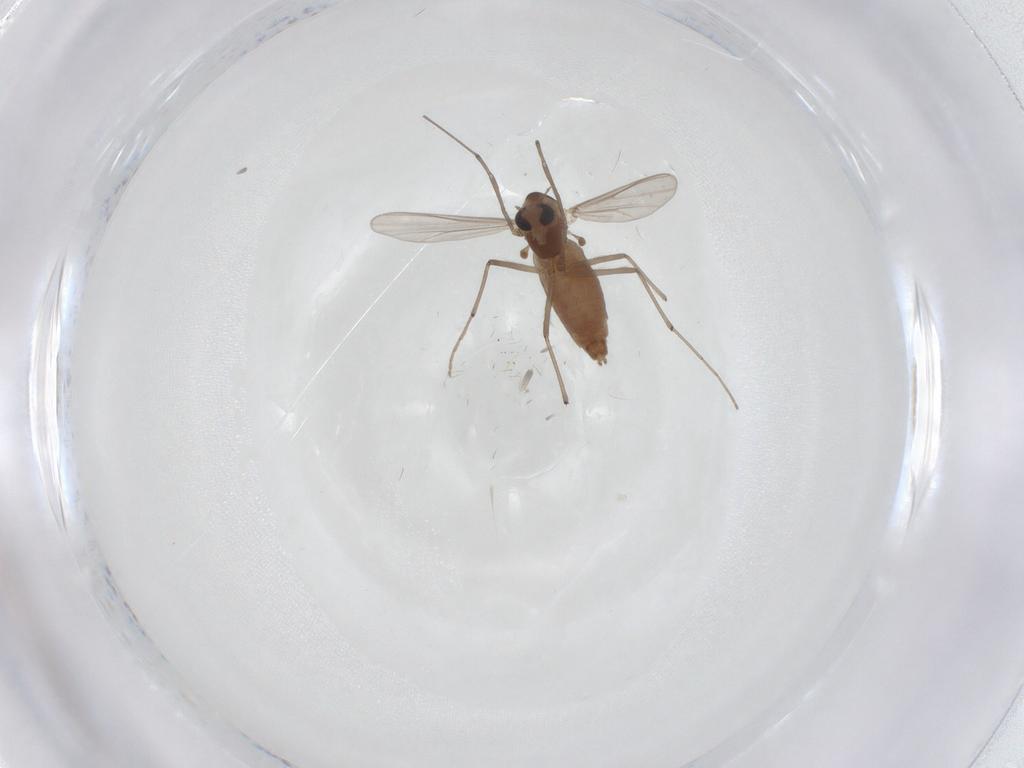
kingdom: Animalia
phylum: Arthropoda
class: Insecta
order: Diptera
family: Chironomidae
